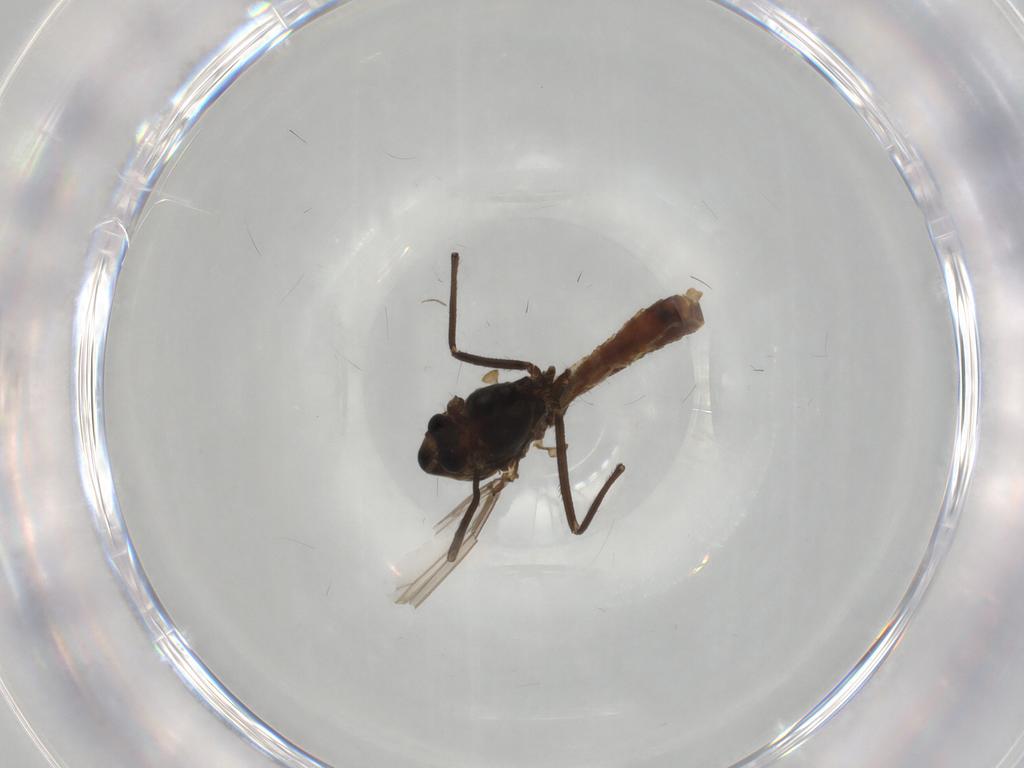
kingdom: Animalia
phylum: Arthropoda
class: Insecta
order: Diptera
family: Chironomidae
